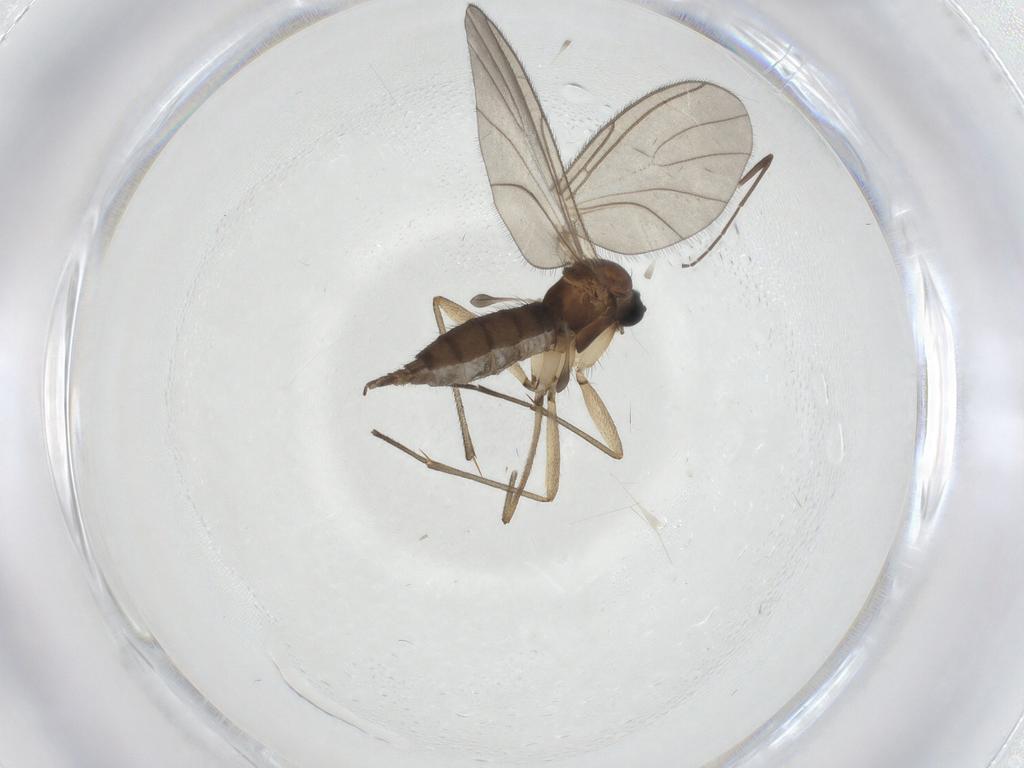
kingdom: Animalia
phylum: Arthropoda
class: Insecta
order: Diptera
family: Sciaridae
